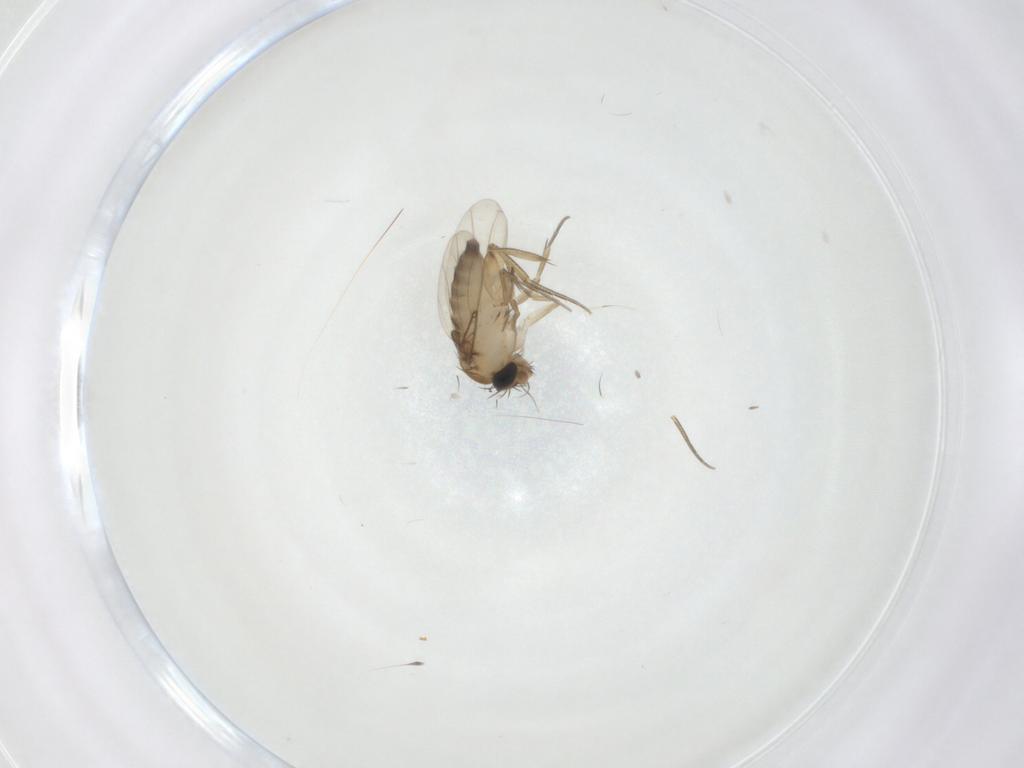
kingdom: Animalia
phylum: Arthropoda
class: Insecta
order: Diptera
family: Phoridae
